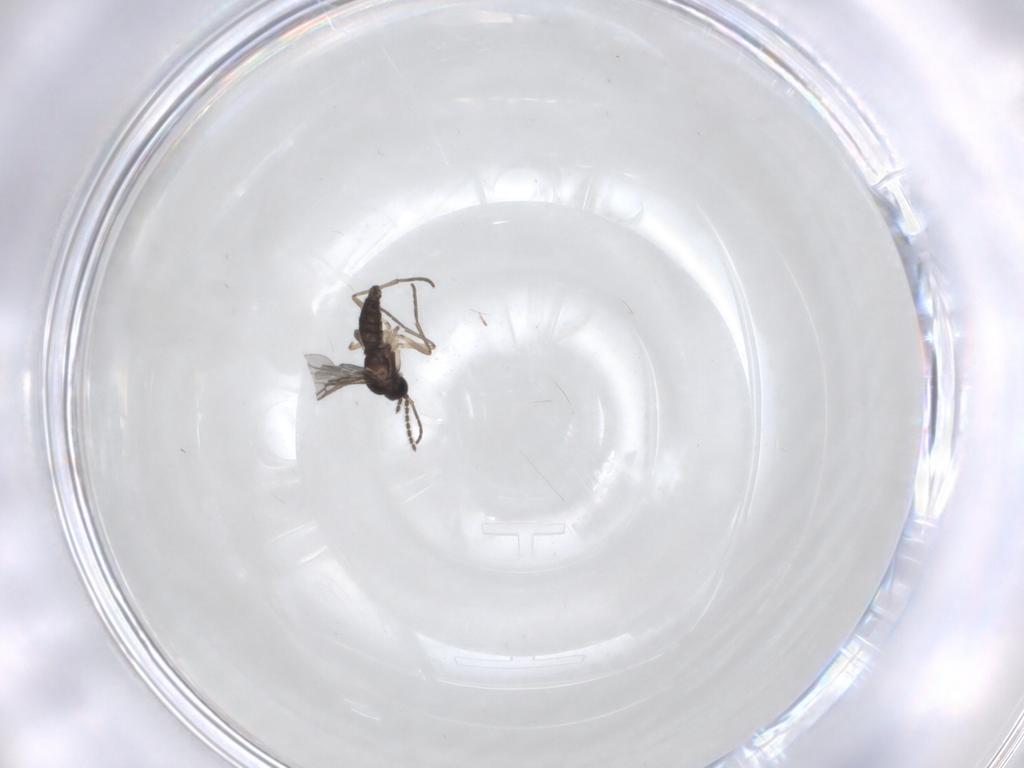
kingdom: Animalia
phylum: Arthropoda
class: Insecta
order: Diptera
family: Sciaridae
